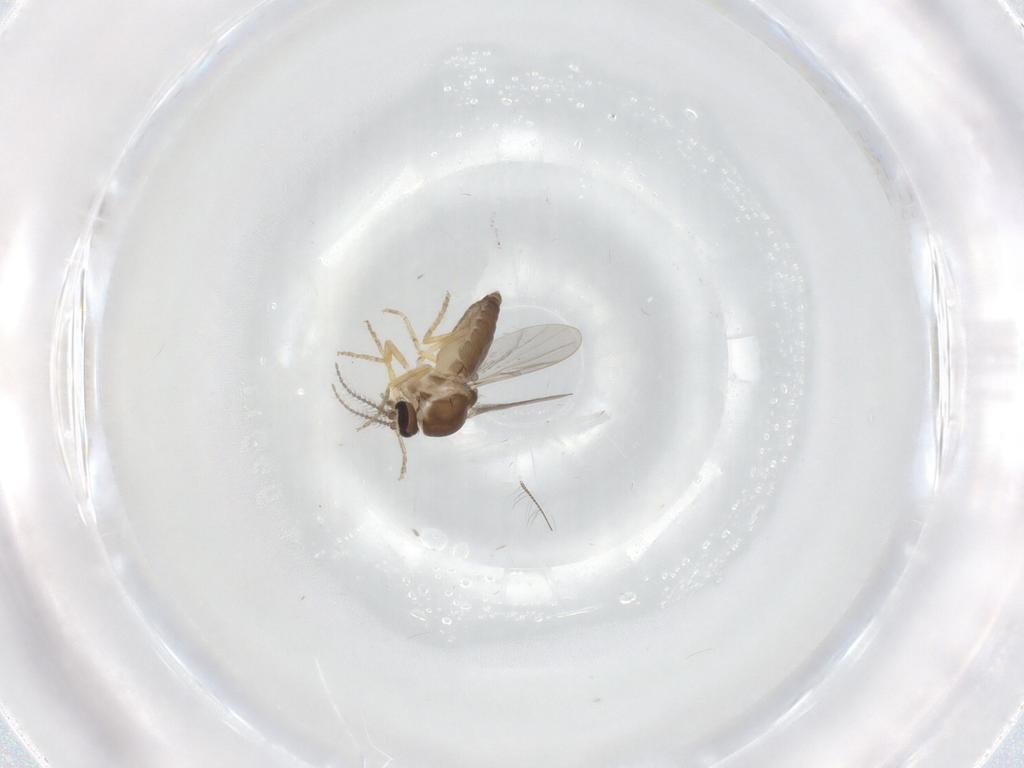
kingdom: Animalia
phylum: Arthropoda
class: Insecta
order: Diptera
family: Ceratopogonidae
